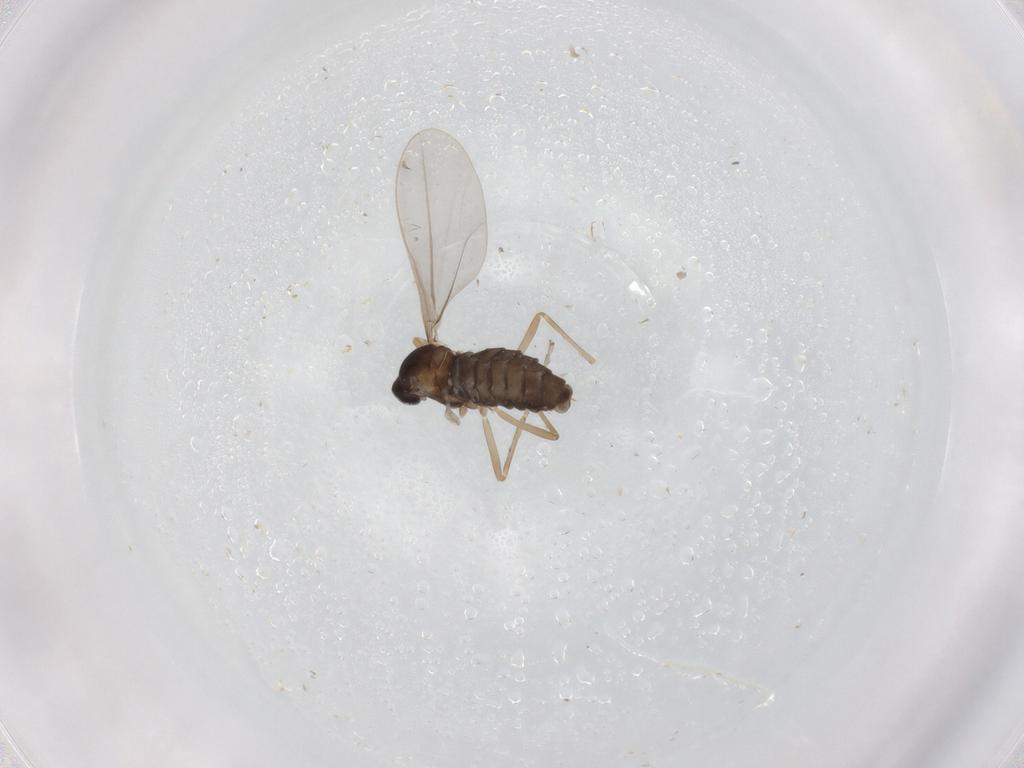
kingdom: Animalia
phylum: Arthropoda
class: Insecta
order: Diptera
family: Cecidomyiidae
